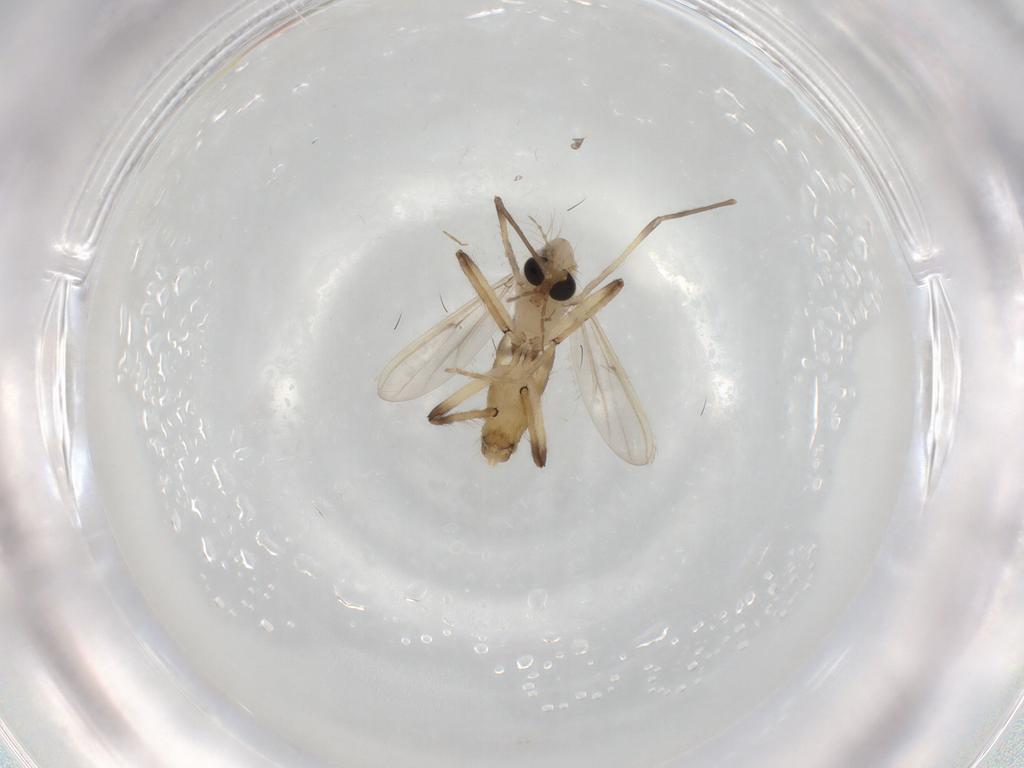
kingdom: Animalia
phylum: Arthropoda
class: Insecta
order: Diptera
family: Chironomidae
